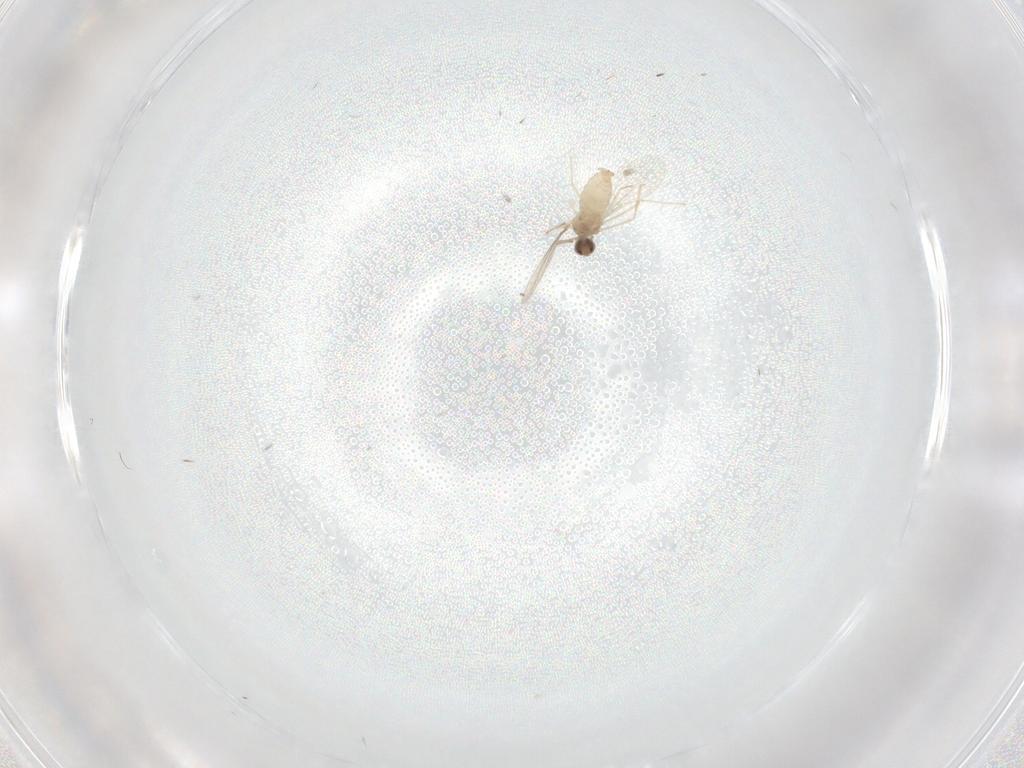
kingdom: Animalia
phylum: Arthropoda
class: Insecta
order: Diptera
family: Cecidomyiidae
